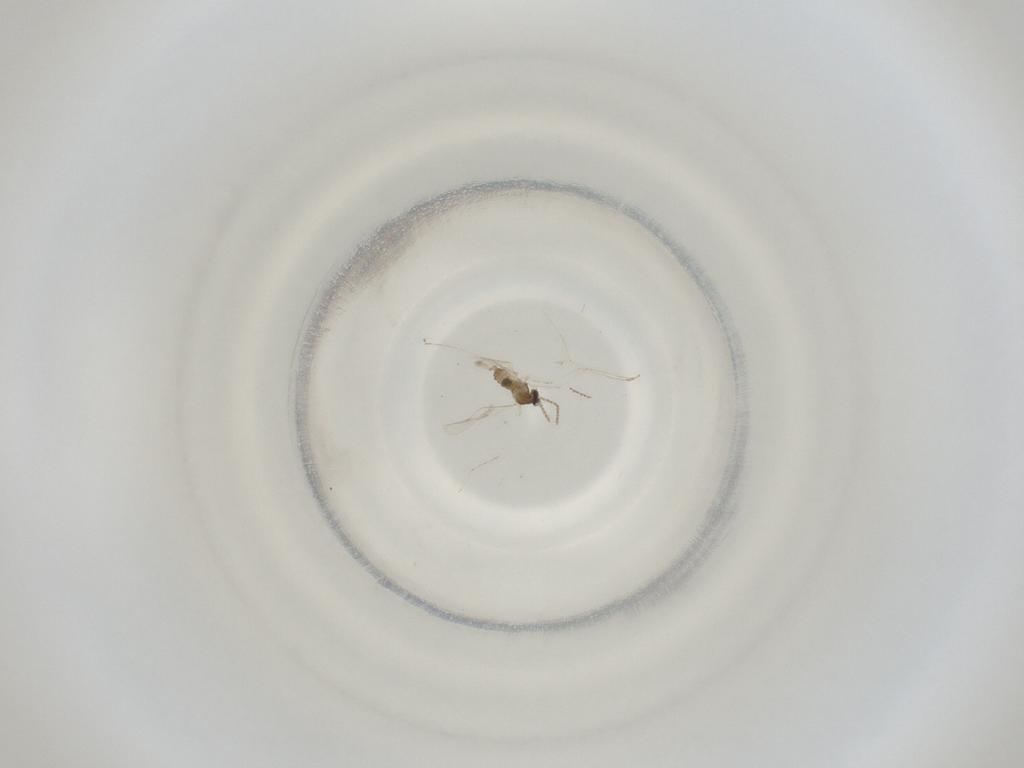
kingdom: Animalia
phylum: Arthropoda
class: Insecta
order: Diptera
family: Cecidomyiidae
